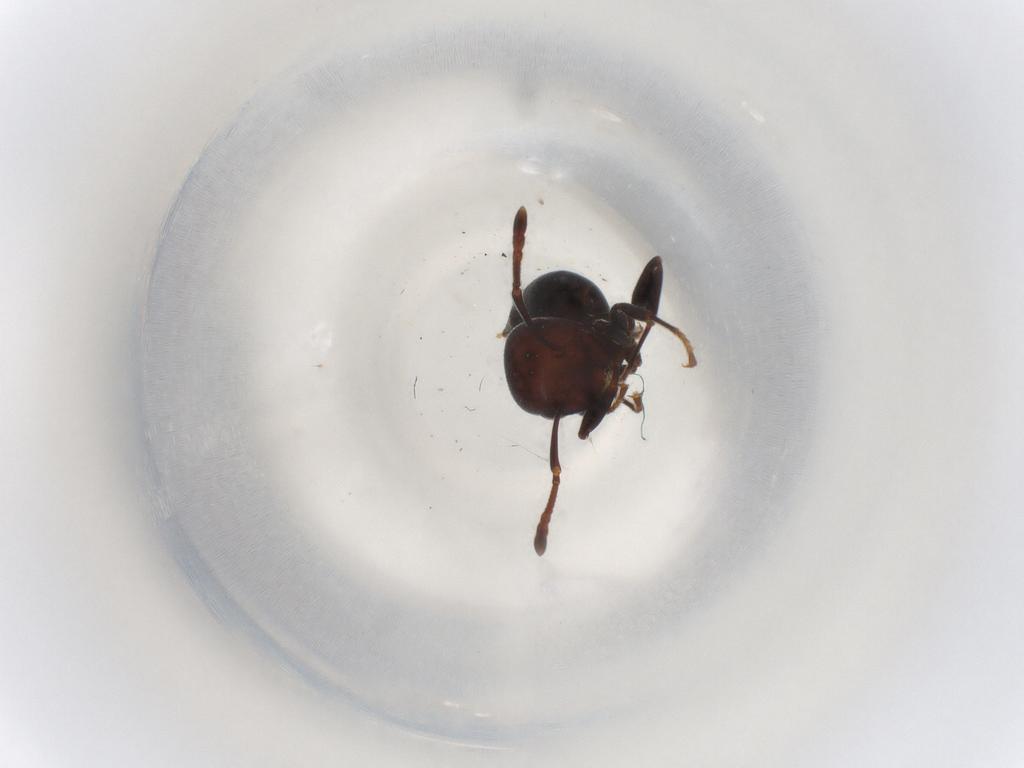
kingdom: Animalia
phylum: Arthropoda
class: Insecta
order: Hymenoptera
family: Formicidae
